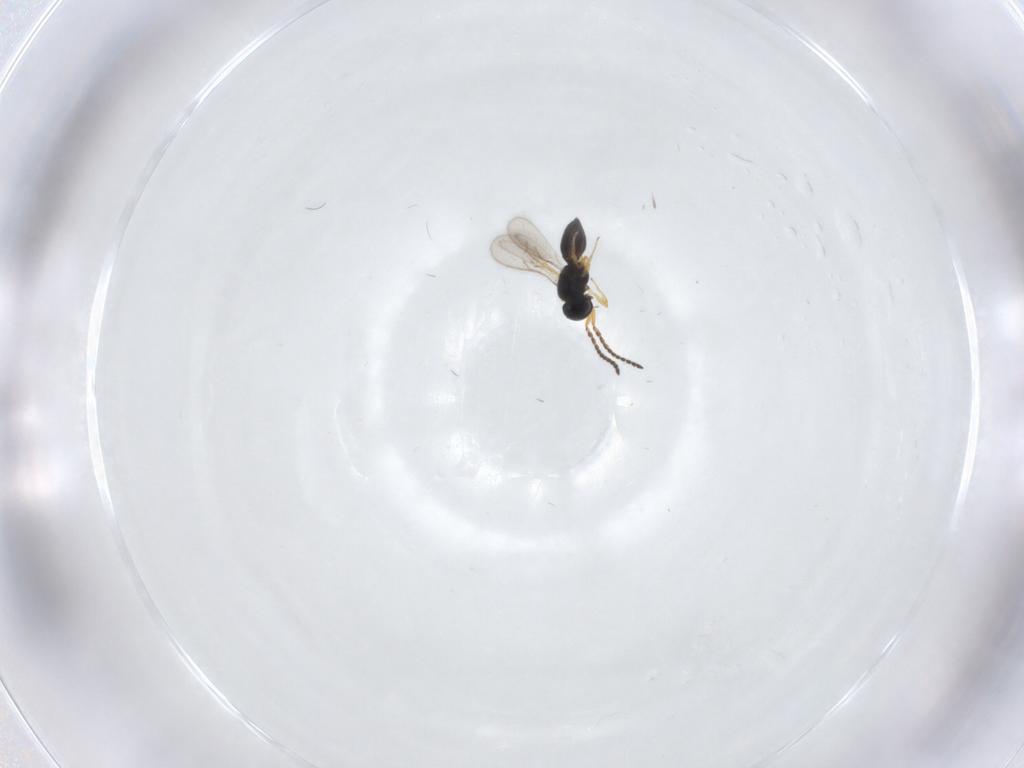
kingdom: Animalia
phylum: Arthropoda
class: Insecta
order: Hymenoptera
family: Scelionidae
